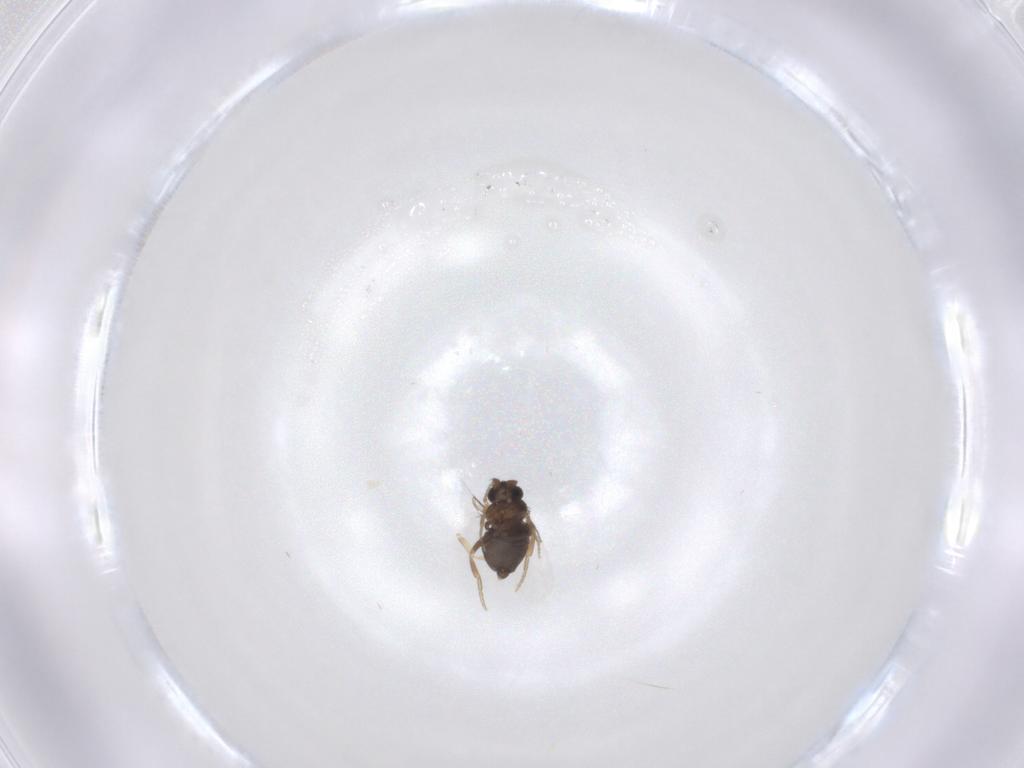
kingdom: Animalia
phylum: Arthropoda
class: Insecta
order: Diptera
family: Phoridae
